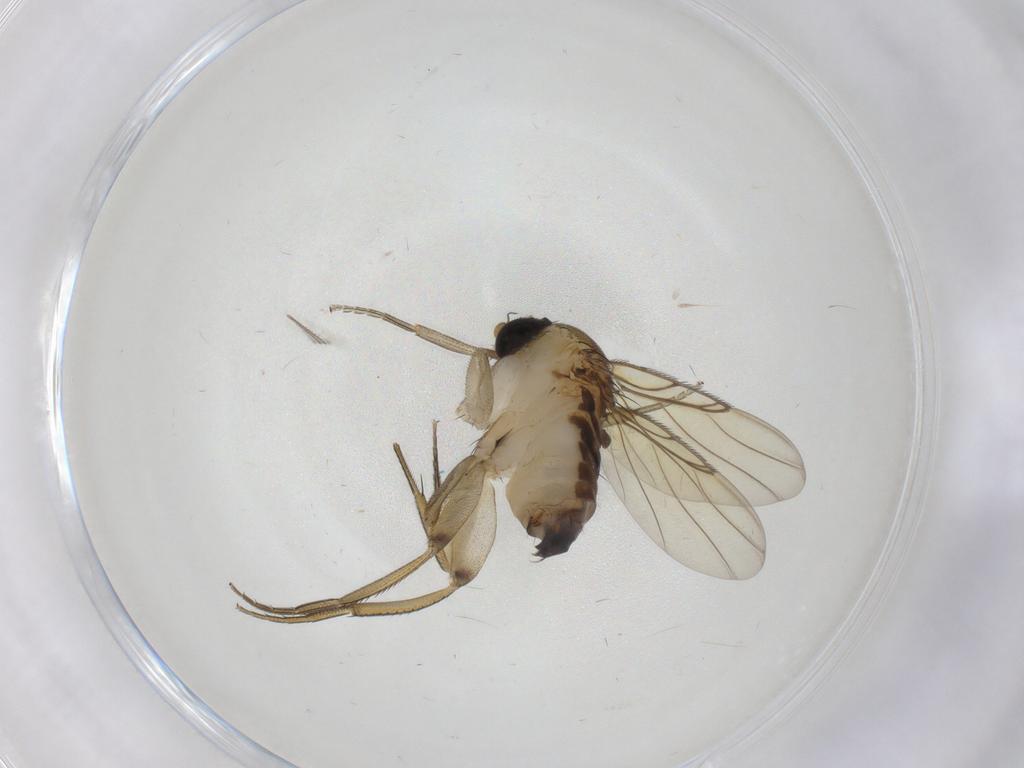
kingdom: Animalia
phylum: Arthropoda
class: Insecta
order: Diptera
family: Phoridae
